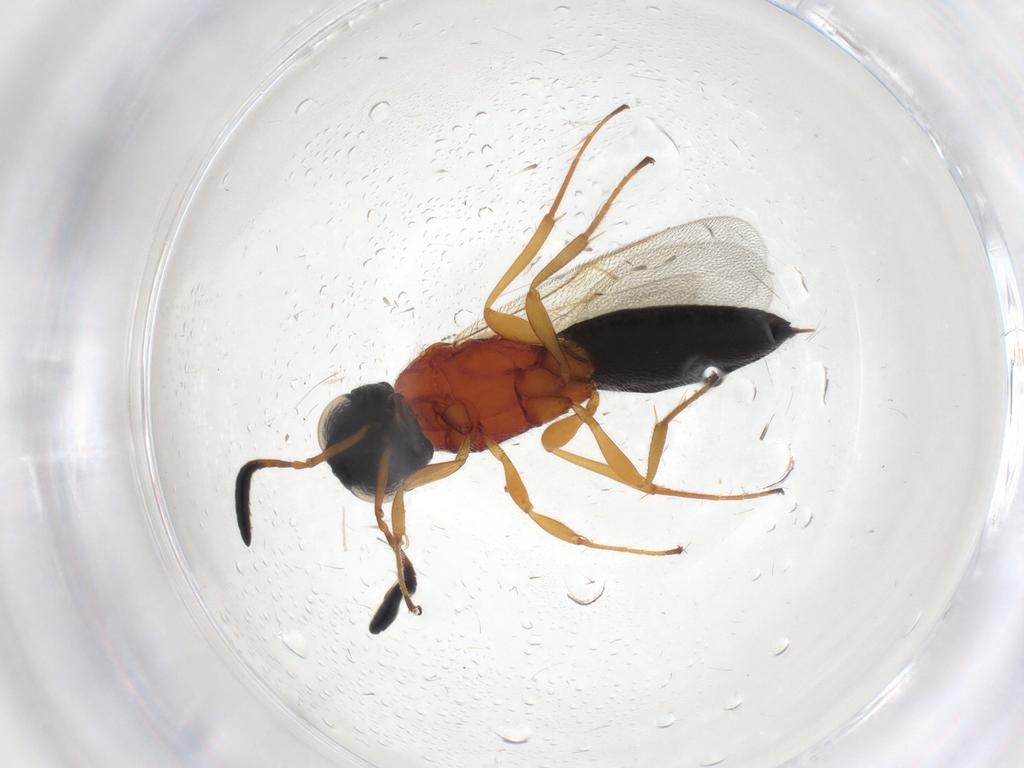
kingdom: Animalia
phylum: Arthropoda
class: Insecta
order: Hymenoptera
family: Scelionidae
